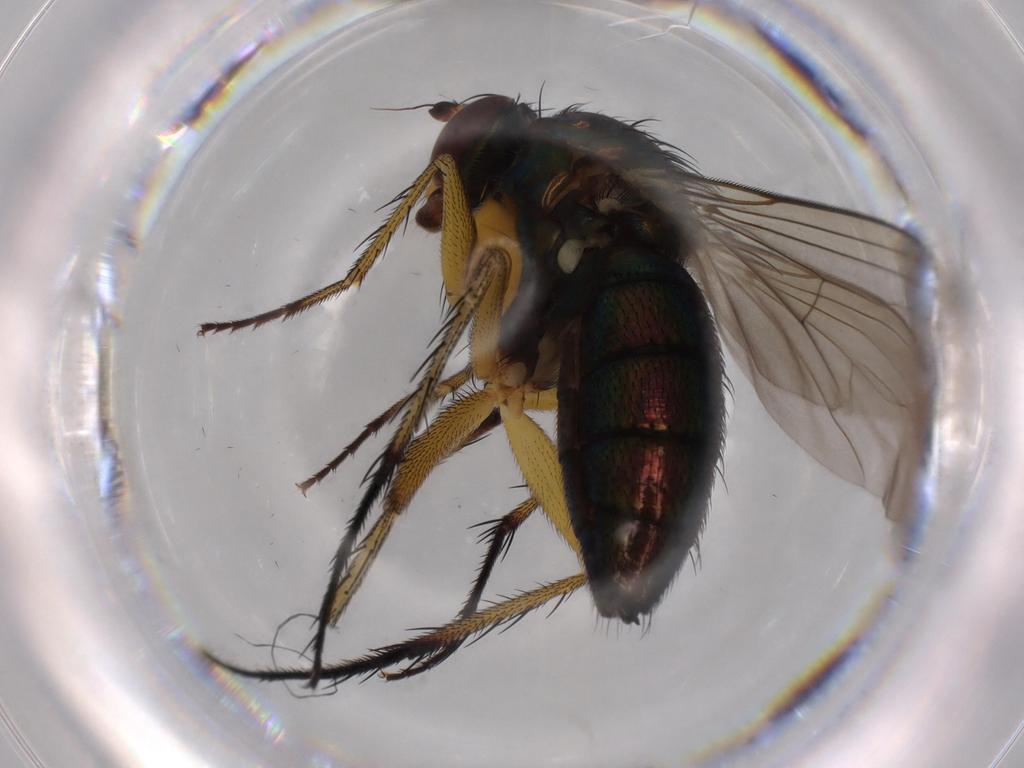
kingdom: Animalia
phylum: Arthropoda
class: Insecta
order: Diptera
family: Dolichopodidae
